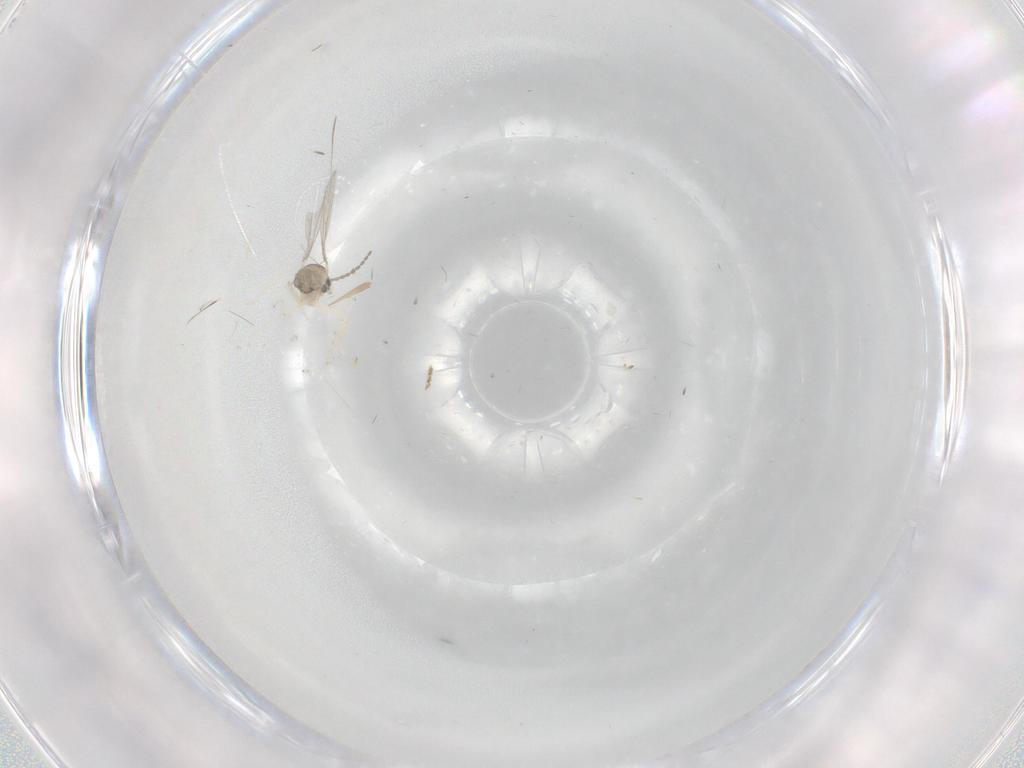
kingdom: Animalia
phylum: Arthropoda
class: Insecta
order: Diptera
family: Cecidomyiidae
